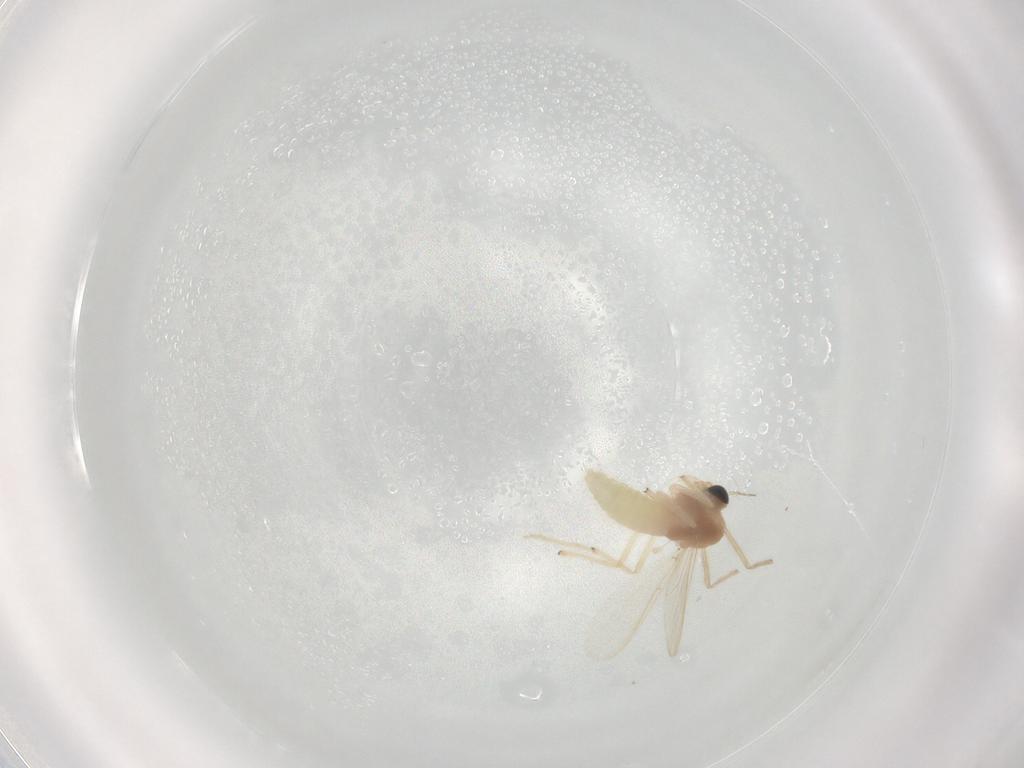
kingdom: Animalia
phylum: Arthropoda
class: Insecta
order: Diptera
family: Chironomidae
